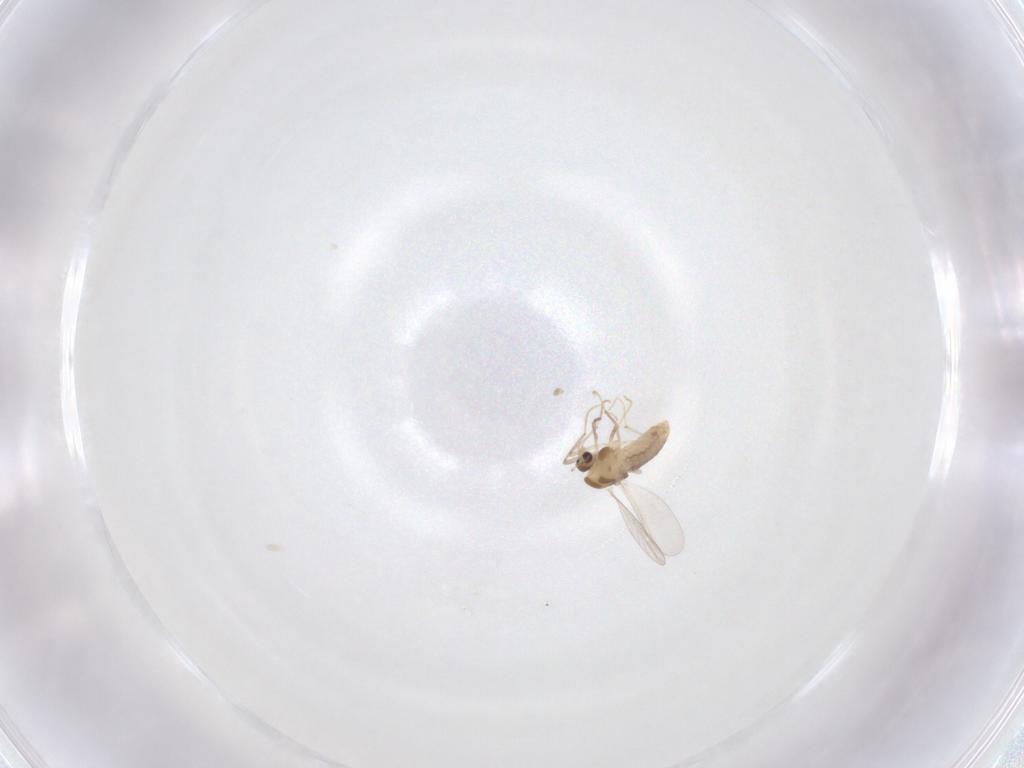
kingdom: Animalia
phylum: Arthropoda
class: Insecta
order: Diptera
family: Chironomidae
